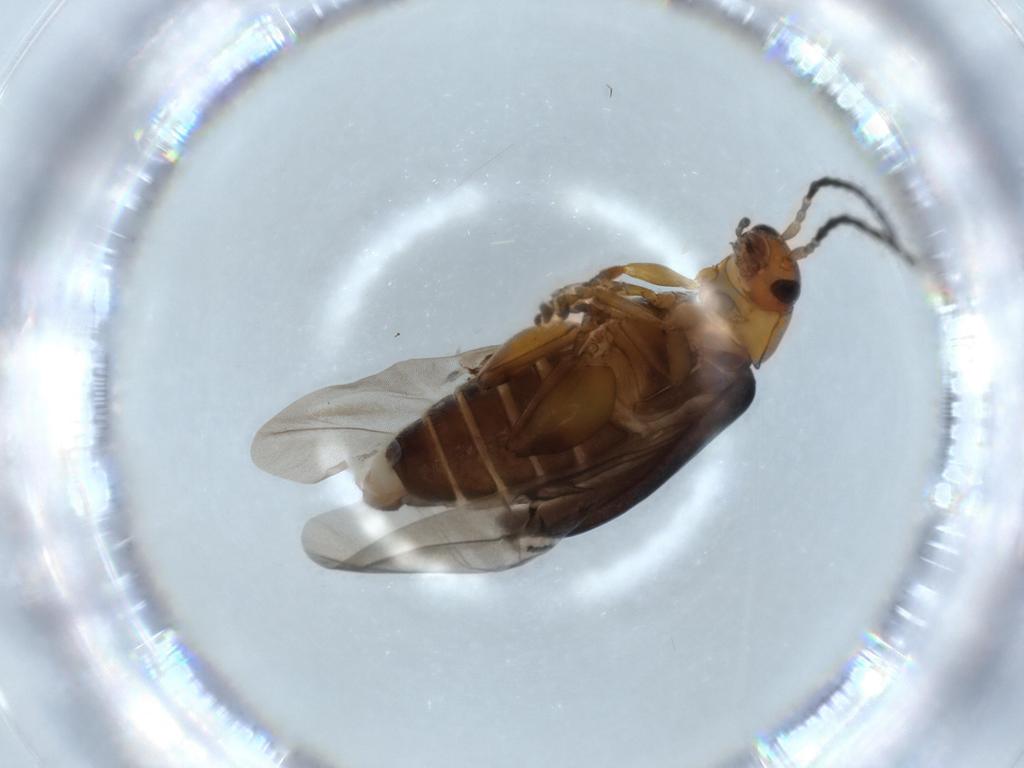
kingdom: Animalia
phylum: Arthropoda
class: Insecta
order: Coleoptera
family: Chrysomelidae
